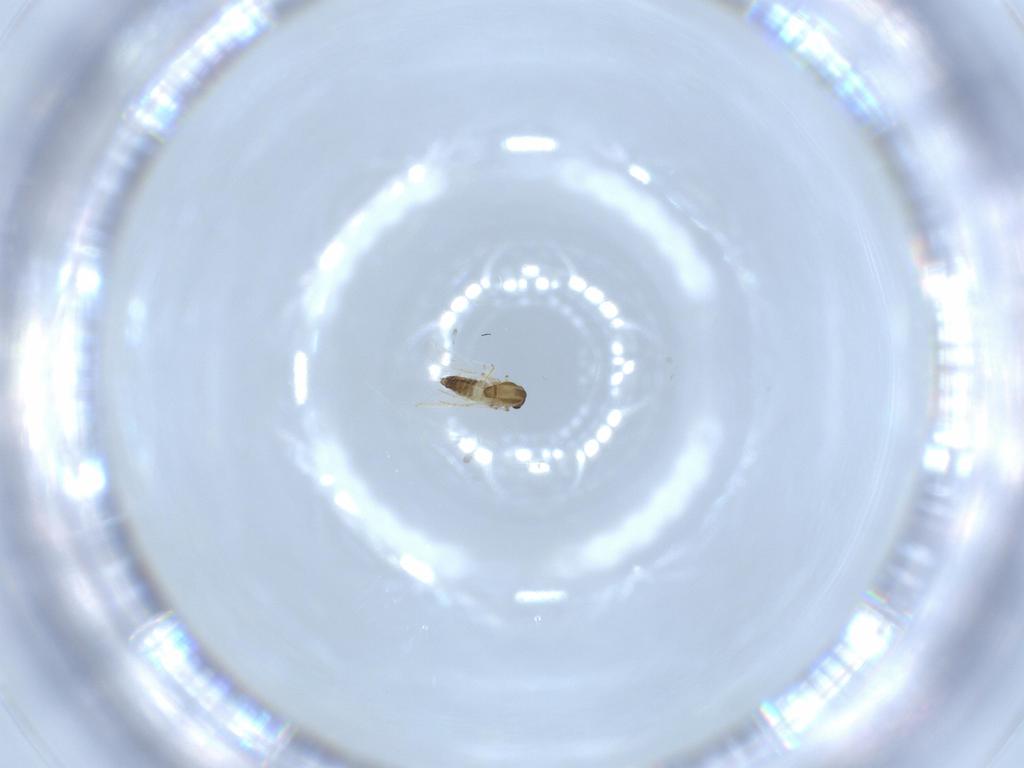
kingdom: Animalia
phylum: Arthropoda
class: Insecta
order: Diptera
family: Chironomidae
